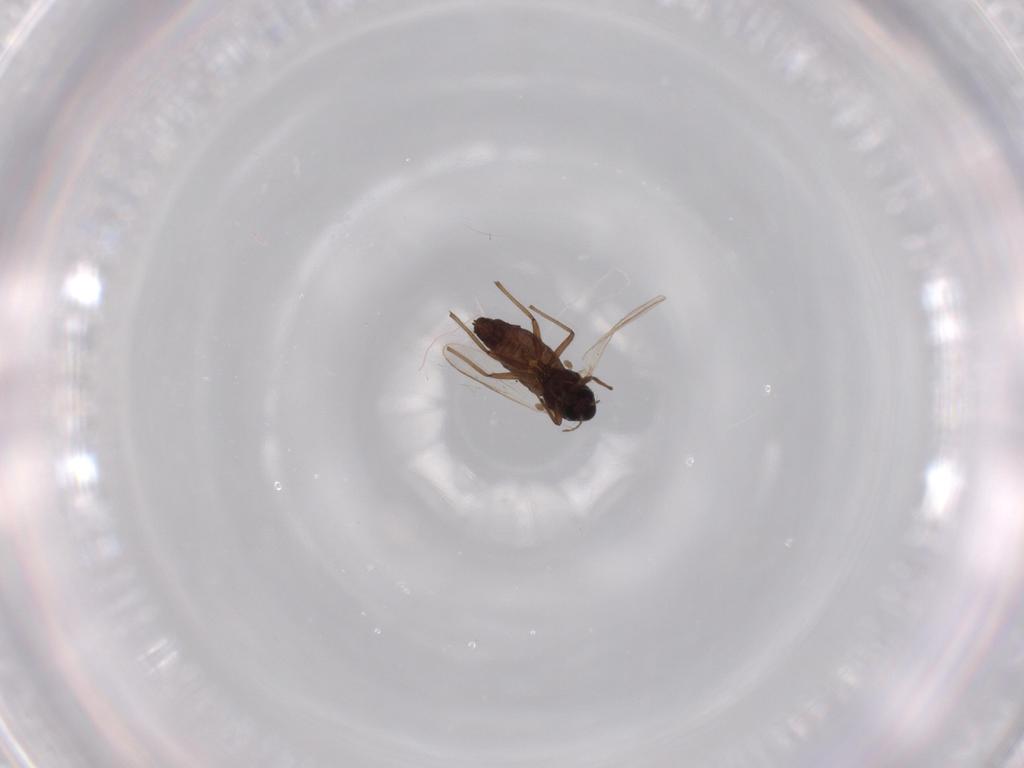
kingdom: Animalia
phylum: Arthropoda
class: Insecta
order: Diptera
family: Chironomidae
